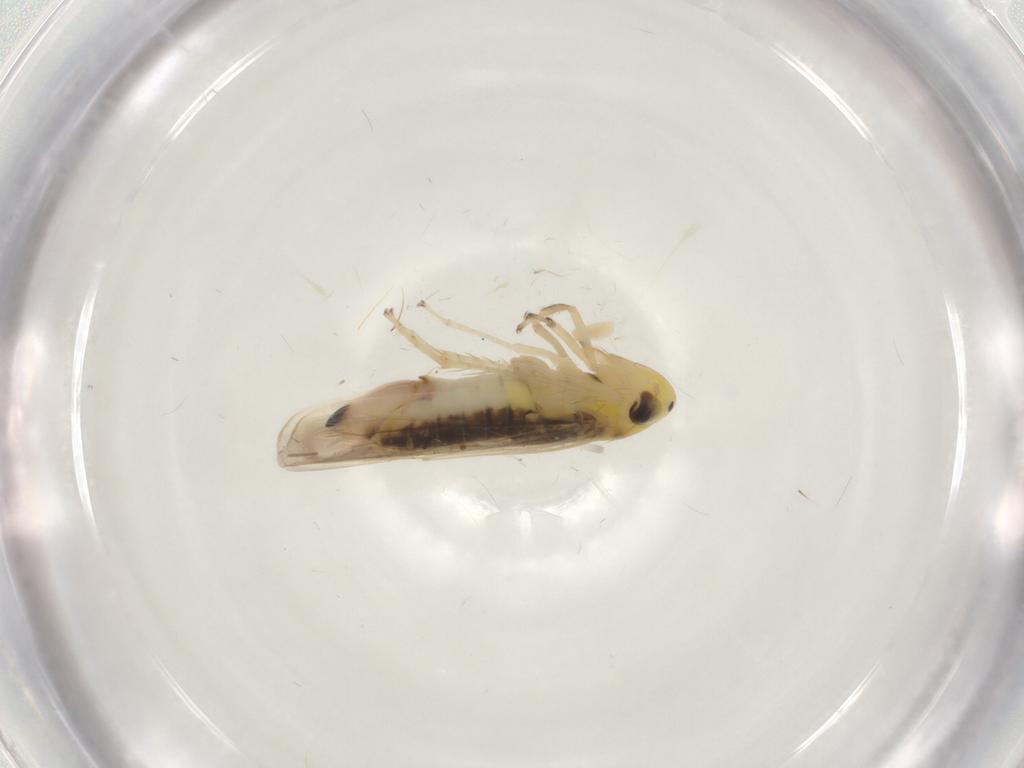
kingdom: Animalia
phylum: Arthropoda
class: Insecta
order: Hemiptera
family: Cicadellidae
